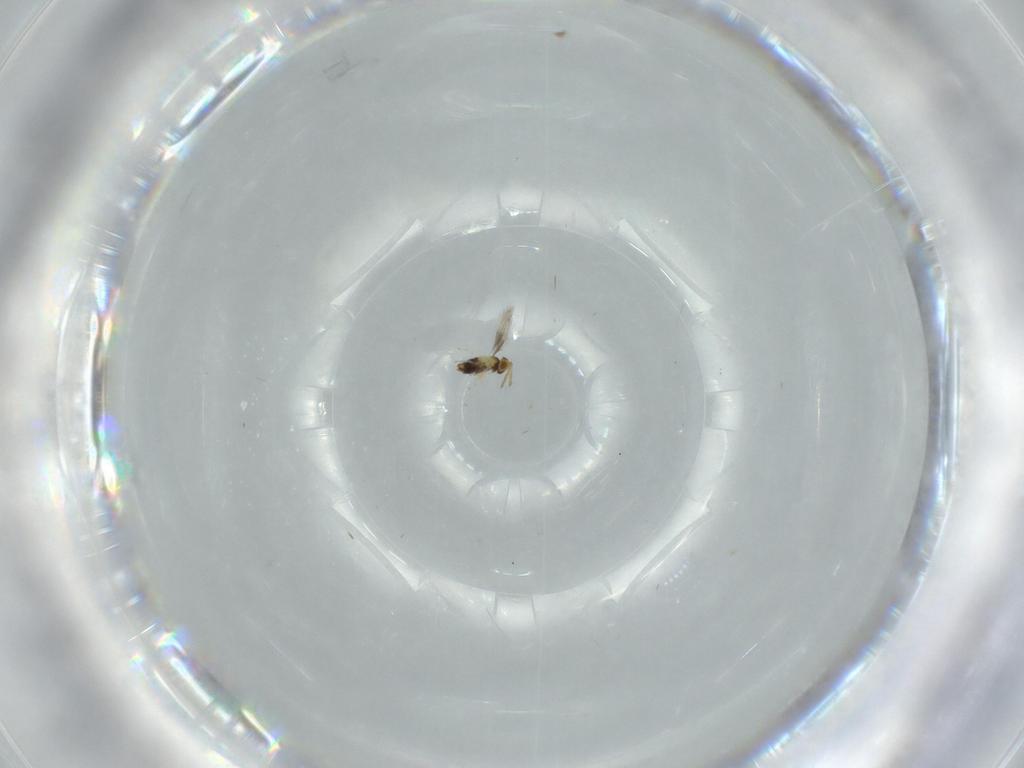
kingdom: Animalia
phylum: Arthropoda
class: Insecta
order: Hymenoptera
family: Aphelinidae
